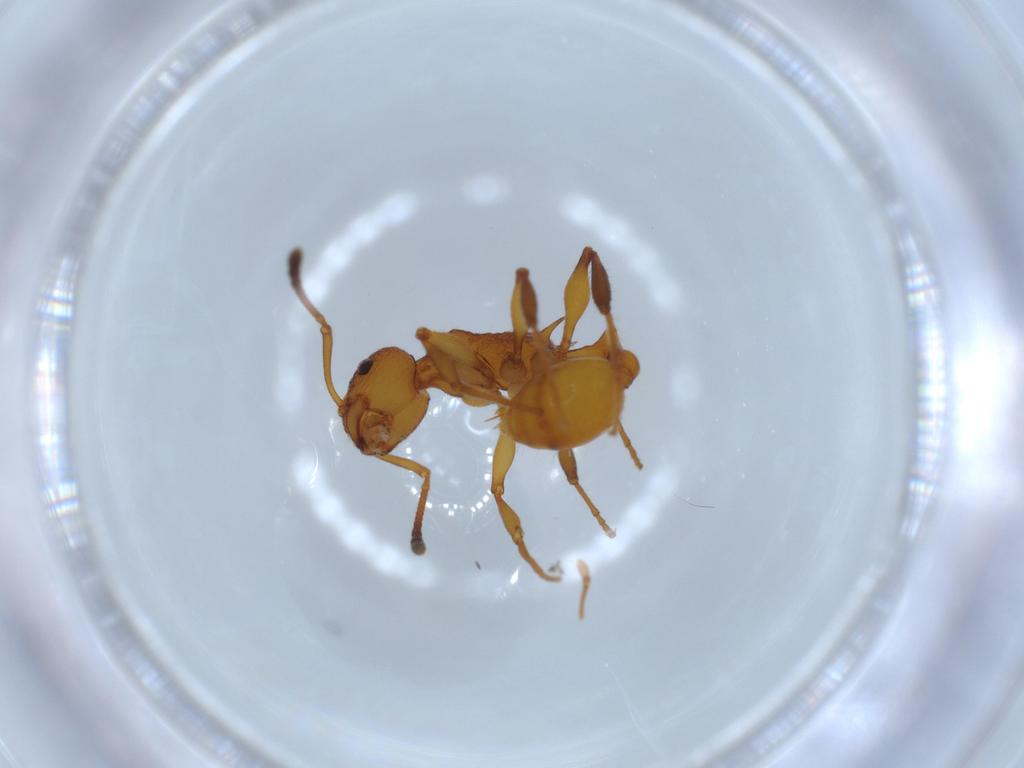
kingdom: Animalia
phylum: Arthropoda
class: Insecta
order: Hymenoptera
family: Formicidae
